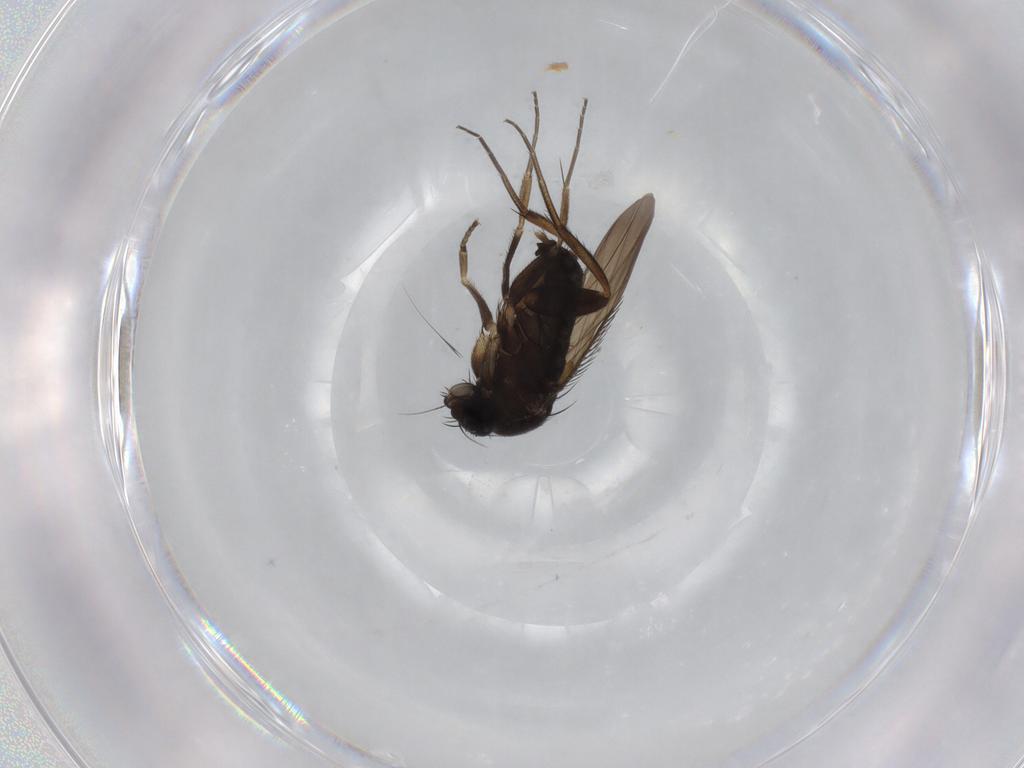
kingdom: Animalia
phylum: Arthropoda
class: Insecta
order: Diptera
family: Phoridae
